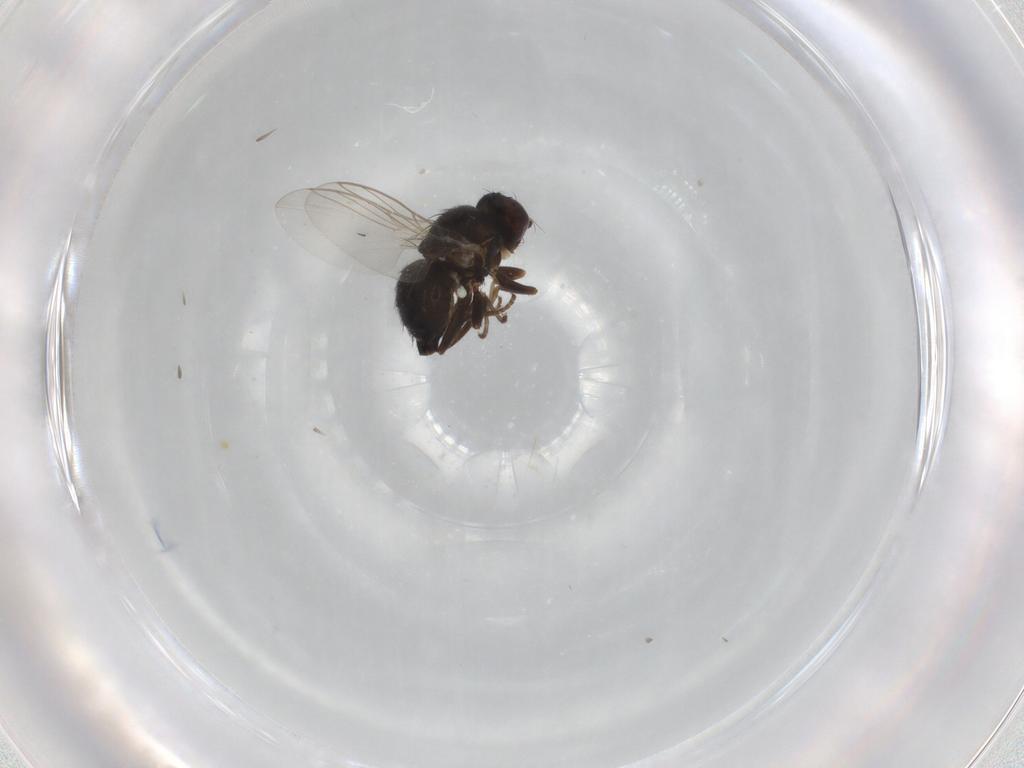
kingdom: Animalia
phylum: Arthropoda
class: Insecta
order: Diptera
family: Agromyzidae
